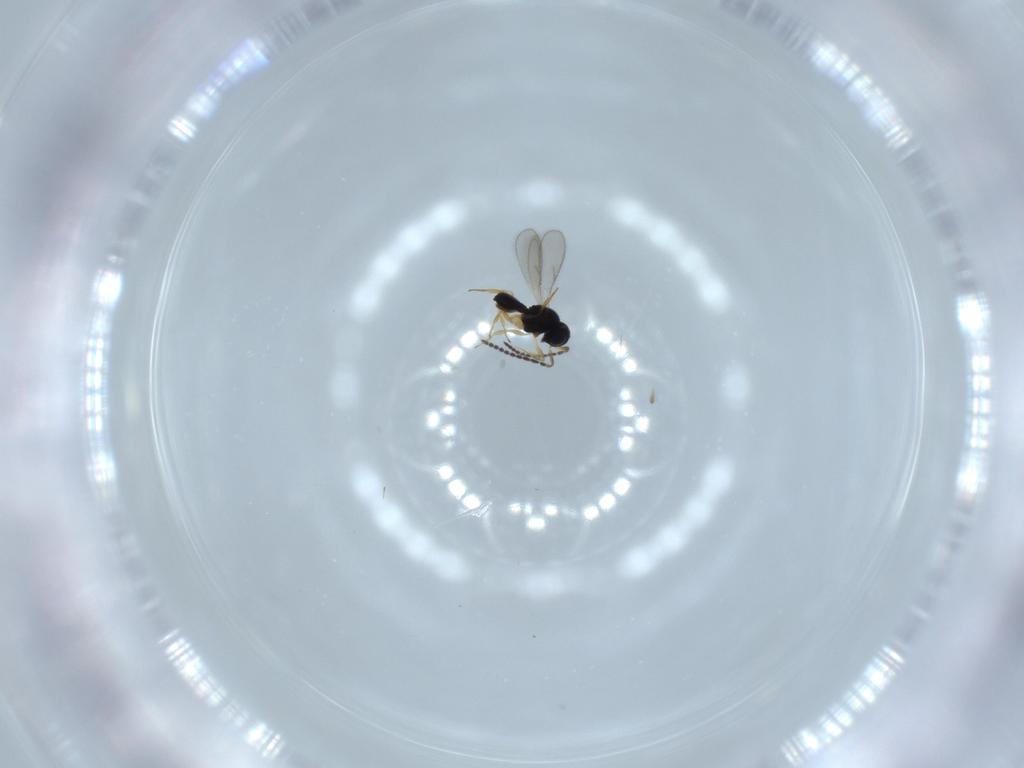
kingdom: Animalia
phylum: Arthropoda
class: Insecta
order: Hymenoptera
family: Scelionidae
